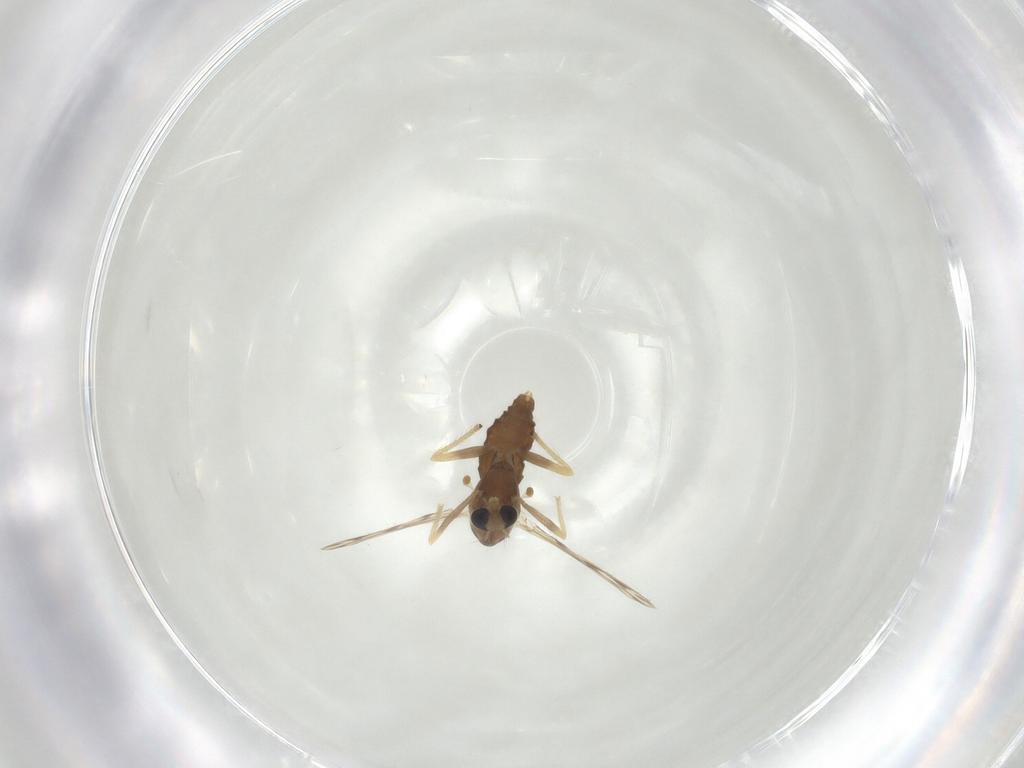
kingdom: Animalia
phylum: Arthropoda
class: Insecta
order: Diptera
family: Chironomidae
